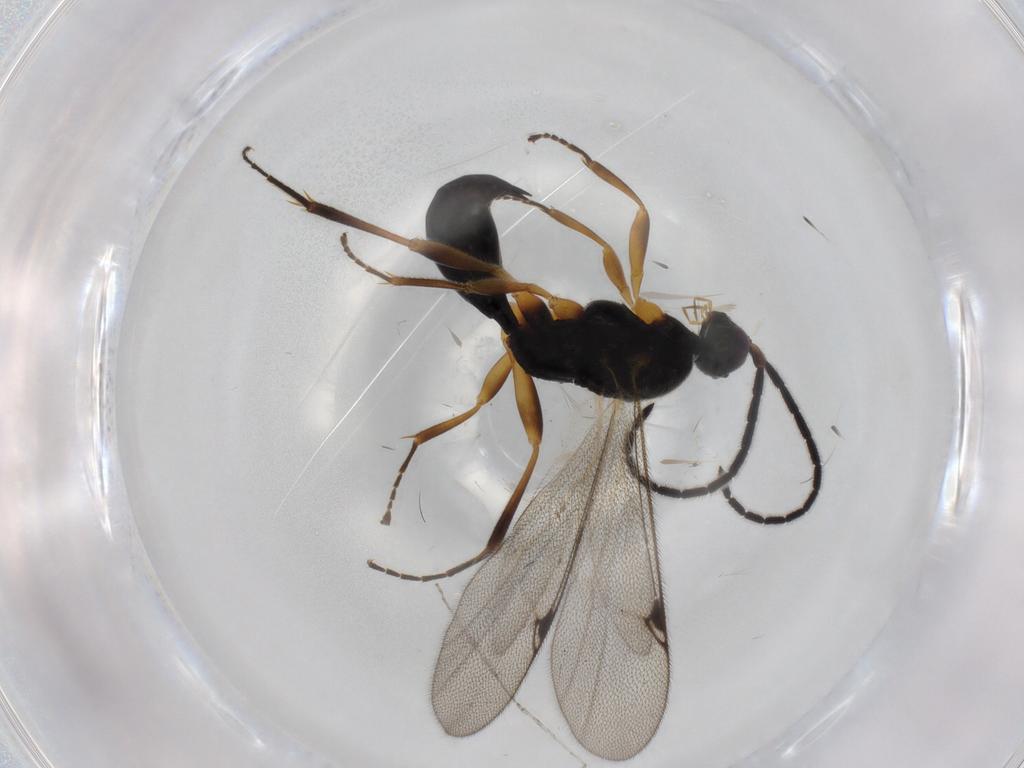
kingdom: Animalia
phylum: Arthropoda
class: Insecta
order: Hymenoptera
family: Proctotrupidae
